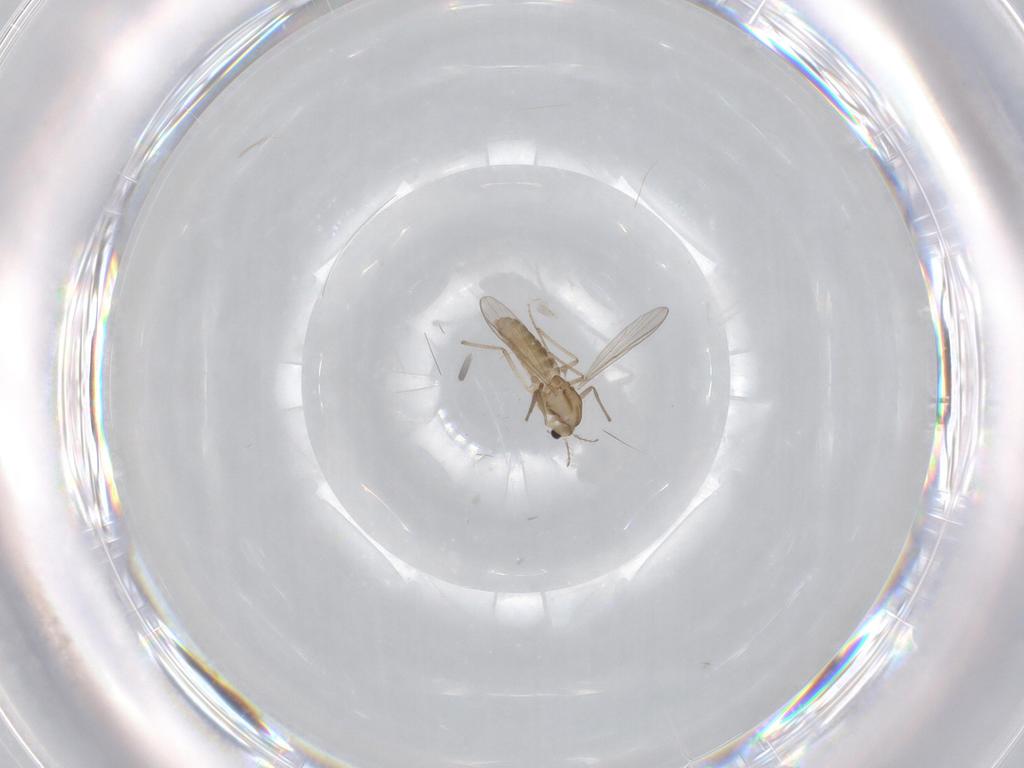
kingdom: Animalia
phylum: Arthropoda
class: Insecta
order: Diptera
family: Chironomidae
